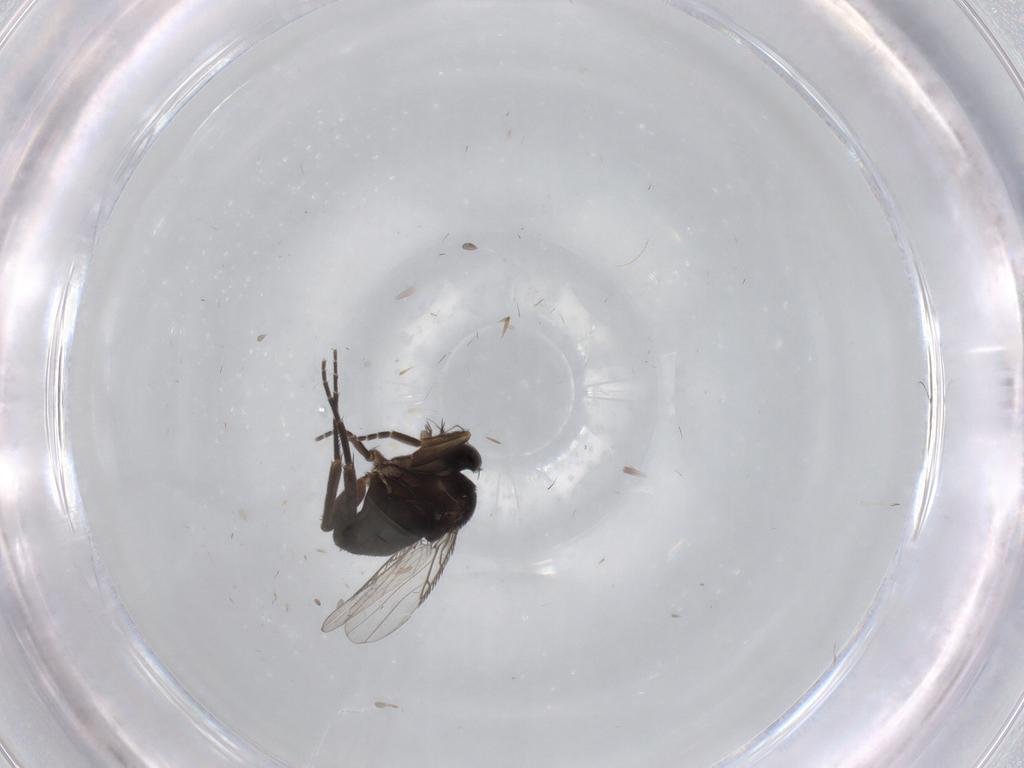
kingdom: Animalia
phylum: Arthropoda
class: Insecta
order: Diptera
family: Phoridae
